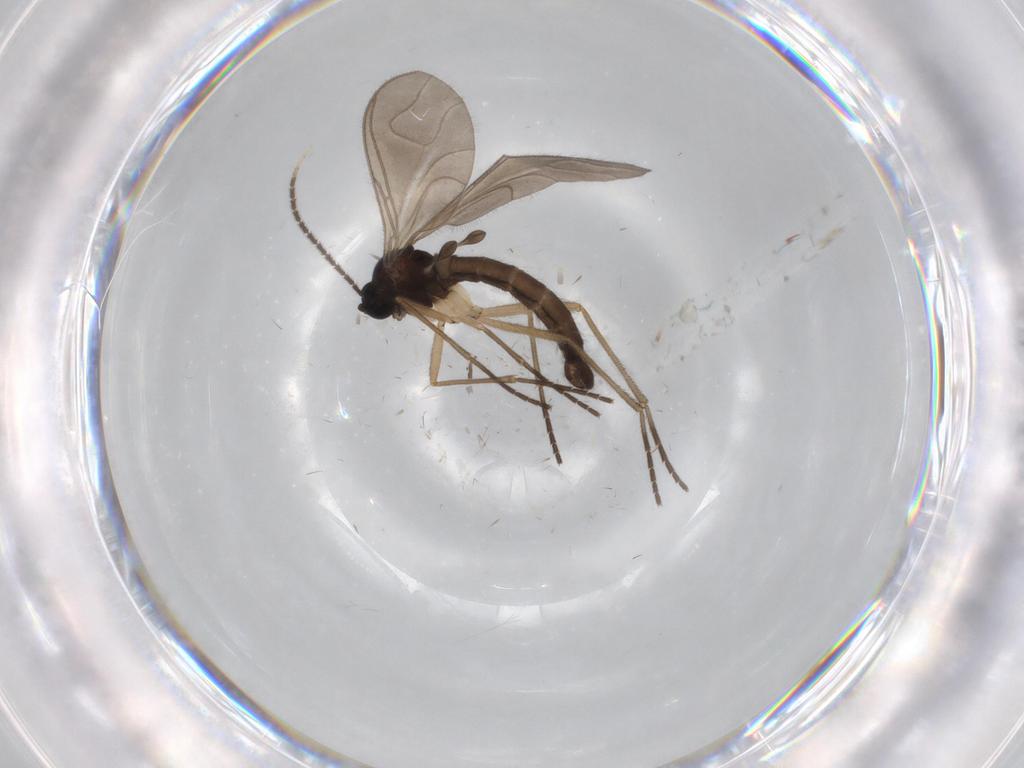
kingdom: Animalia
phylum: Arthropoda
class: Insecta
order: Diptera
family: Sciaridae
